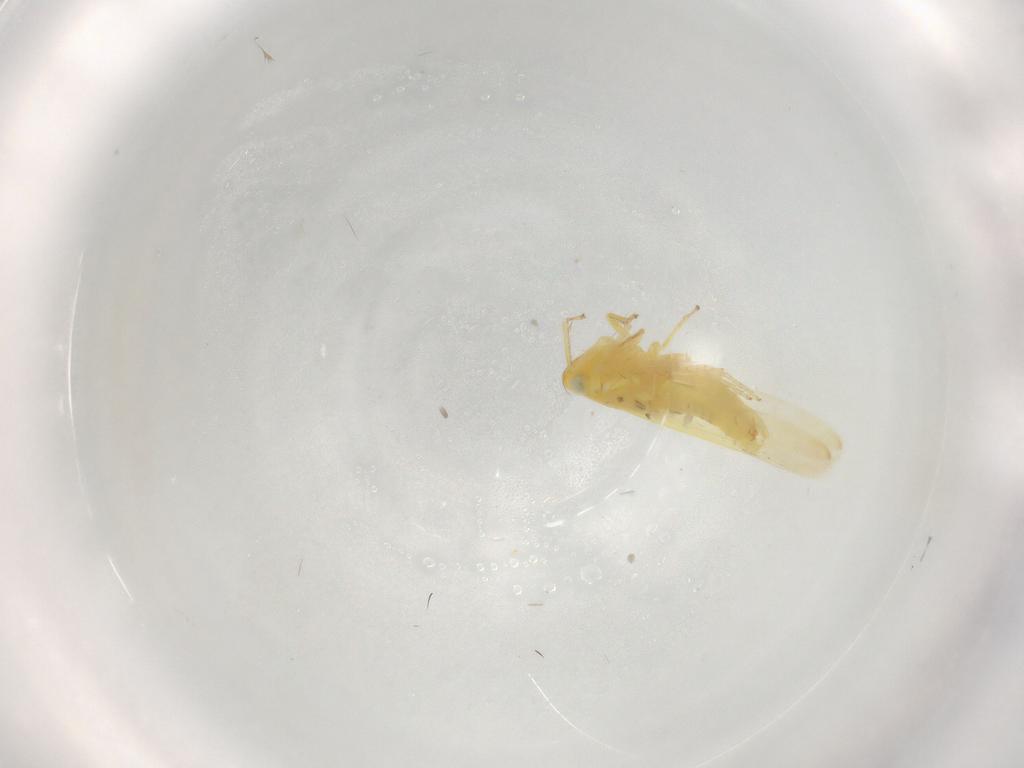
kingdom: Animalia
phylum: Arthropoda
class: Insecta
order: Hemiptera
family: Cicadellidae
